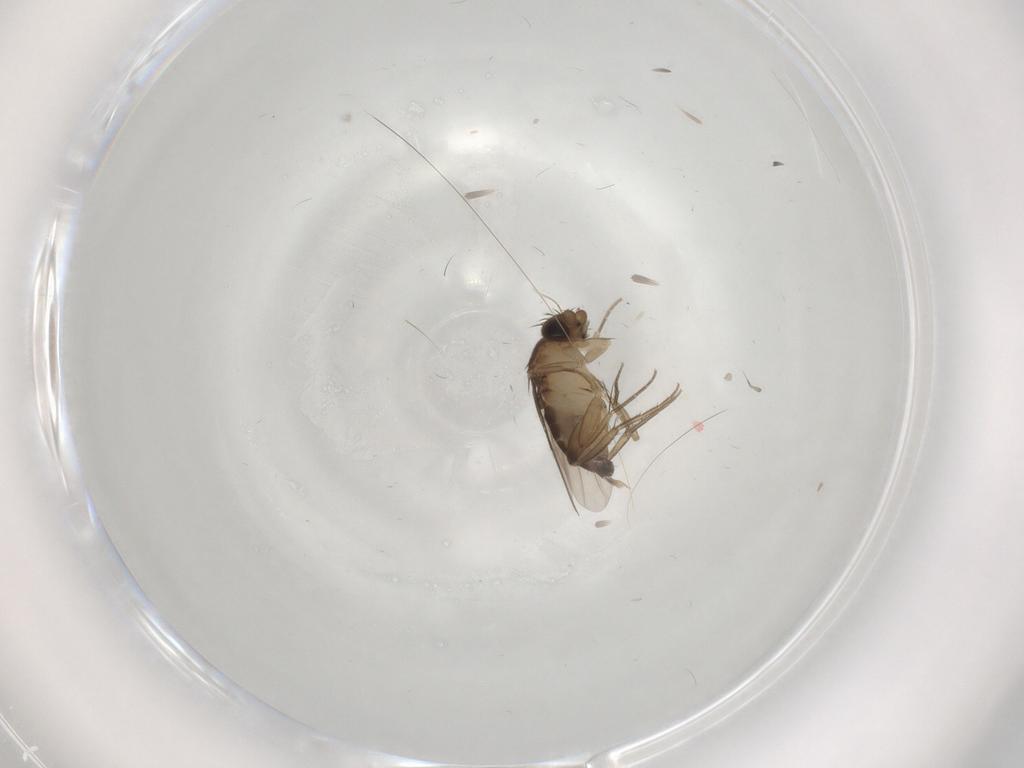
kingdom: Animalia
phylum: Arthropoda
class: Insecta
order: Diptera
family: Phoridae
